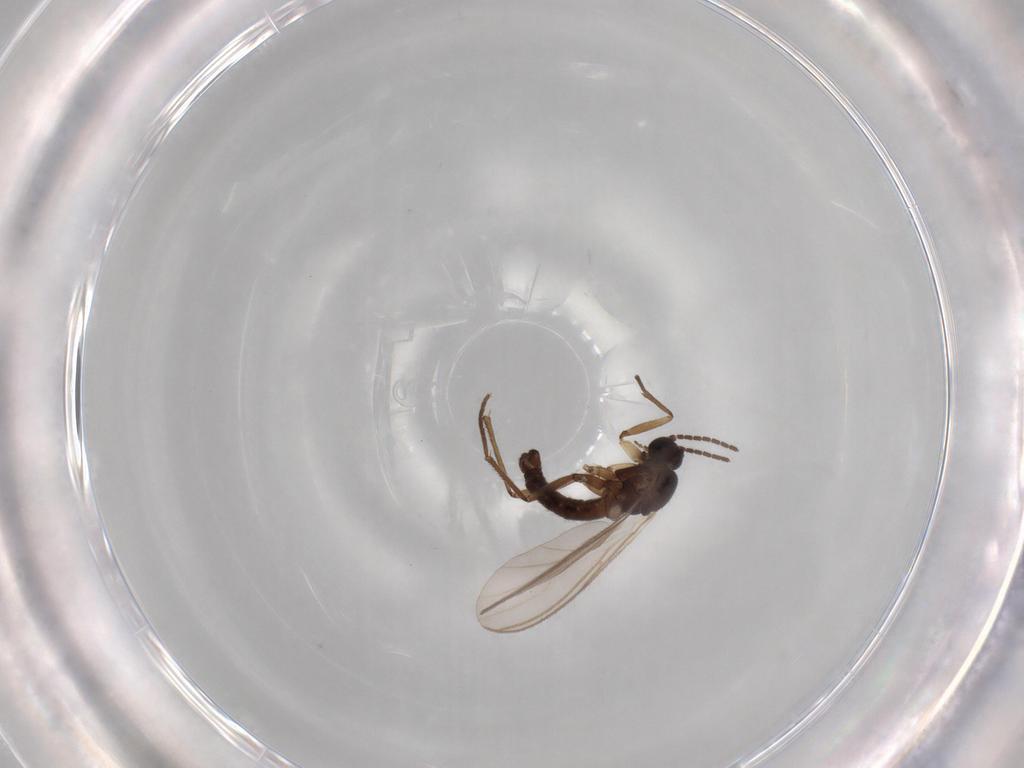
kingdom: Animalia
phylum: Arthropoda
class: Insecta
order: Diptera
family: Sciaridae
